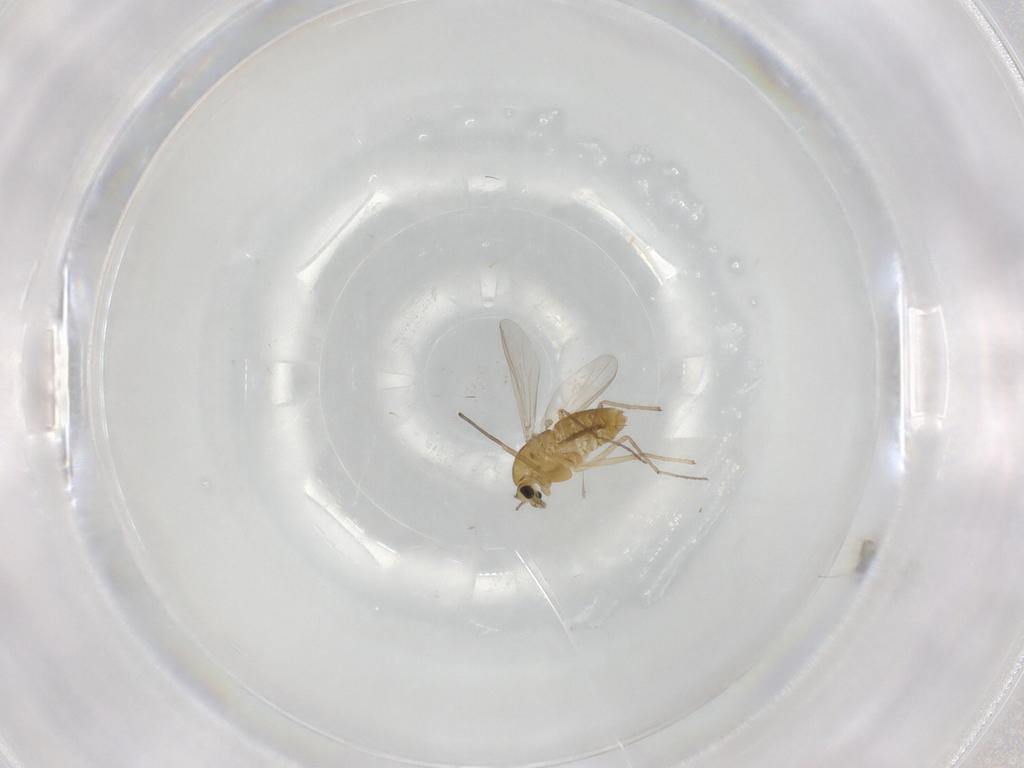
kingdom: Animalia
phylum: Arthropoda
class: Insecta
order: Diptera
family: Chironomidae
